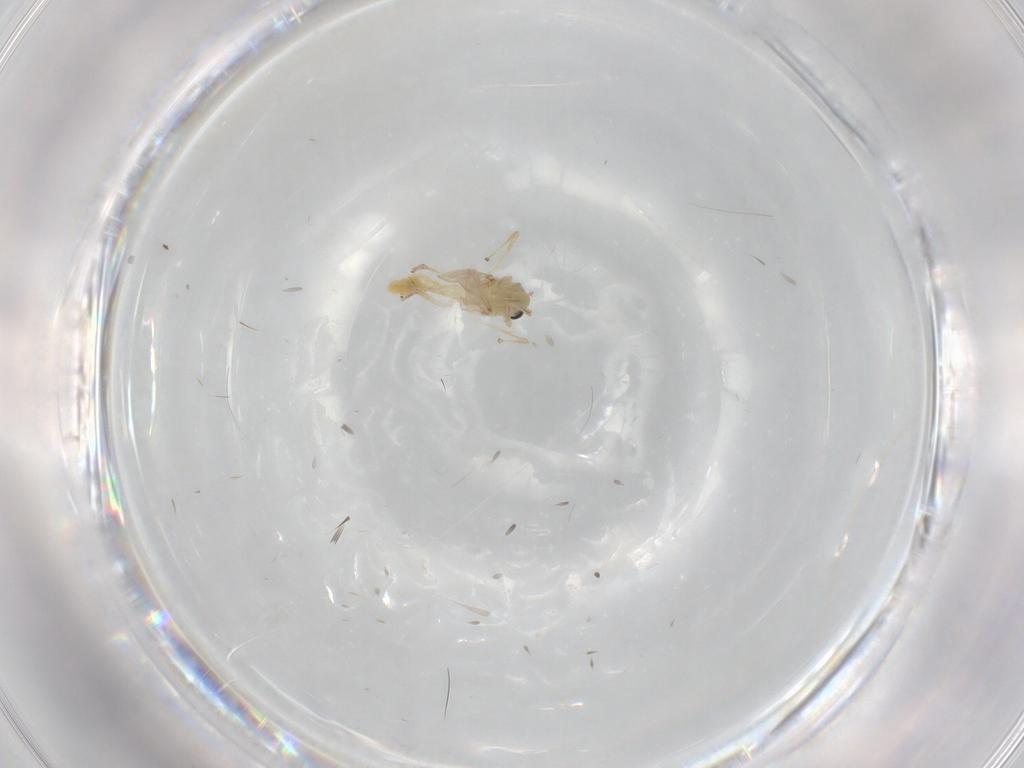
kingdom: Animalia
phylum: Arthropoda
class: Insecta
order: Diptera
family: Chironomidae
